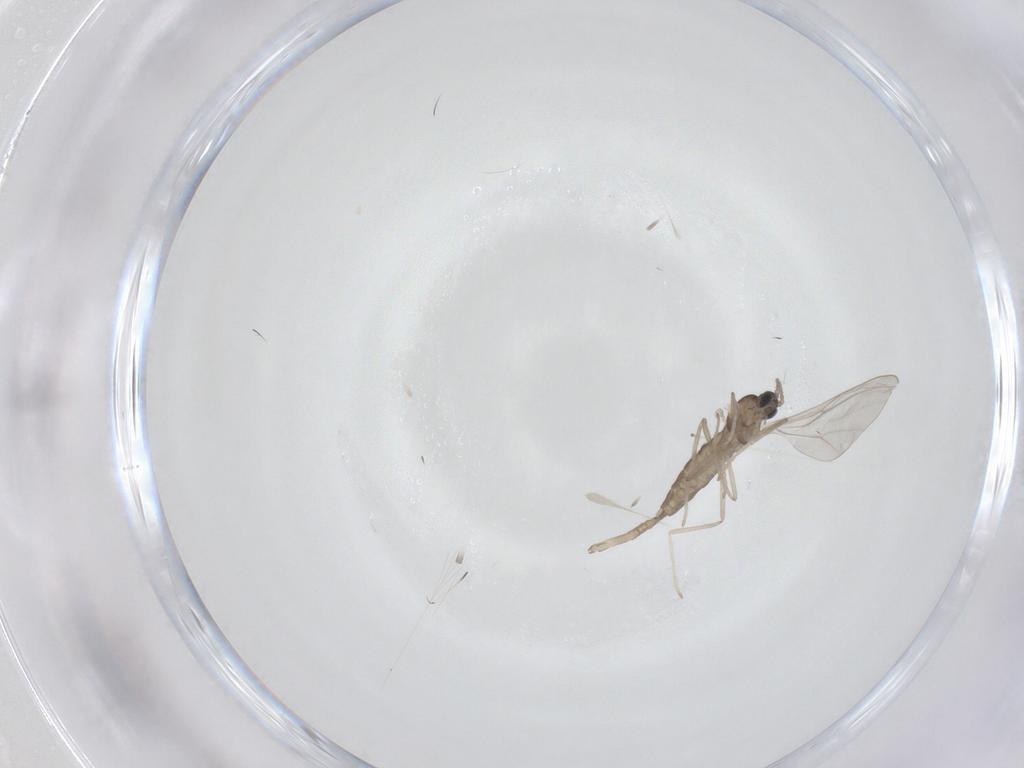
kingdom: Animalia
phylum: Arthropoda
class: Insecta
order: Diptera
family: Cecidomyiidae
